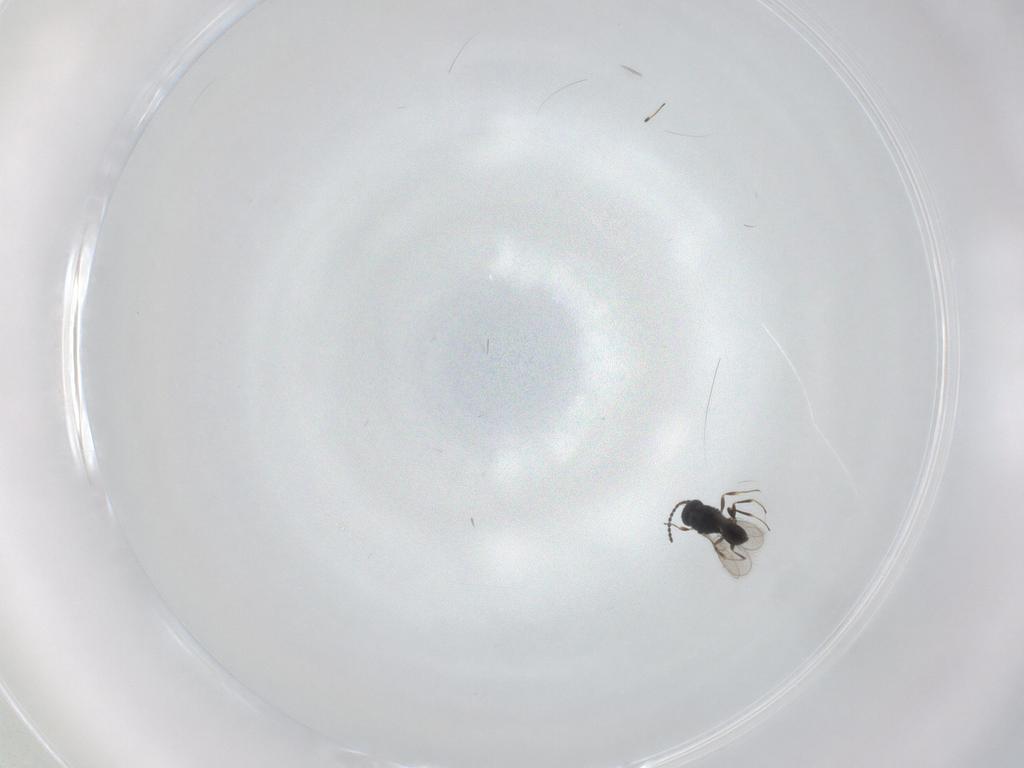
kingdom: Animalia
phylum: Arthropoda
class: Insecta
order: Hymenoptera
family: Scelionidae
